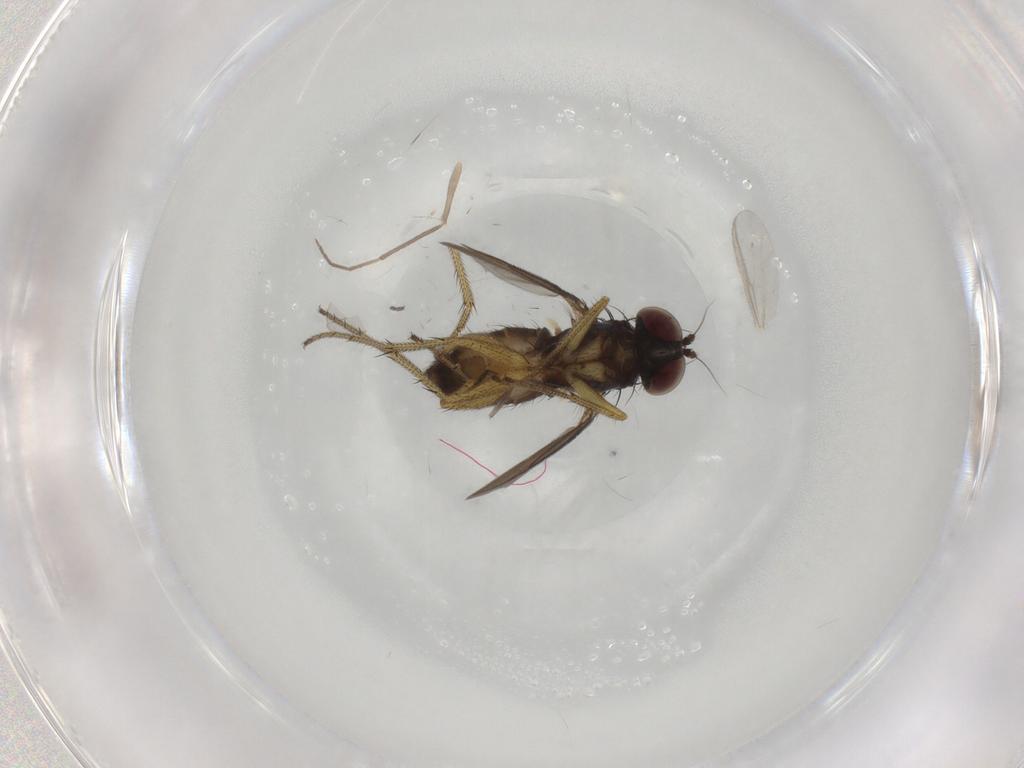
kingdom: Animalia
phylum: Arthropoda
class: Insecta
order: Diptera
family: Sciaridae
